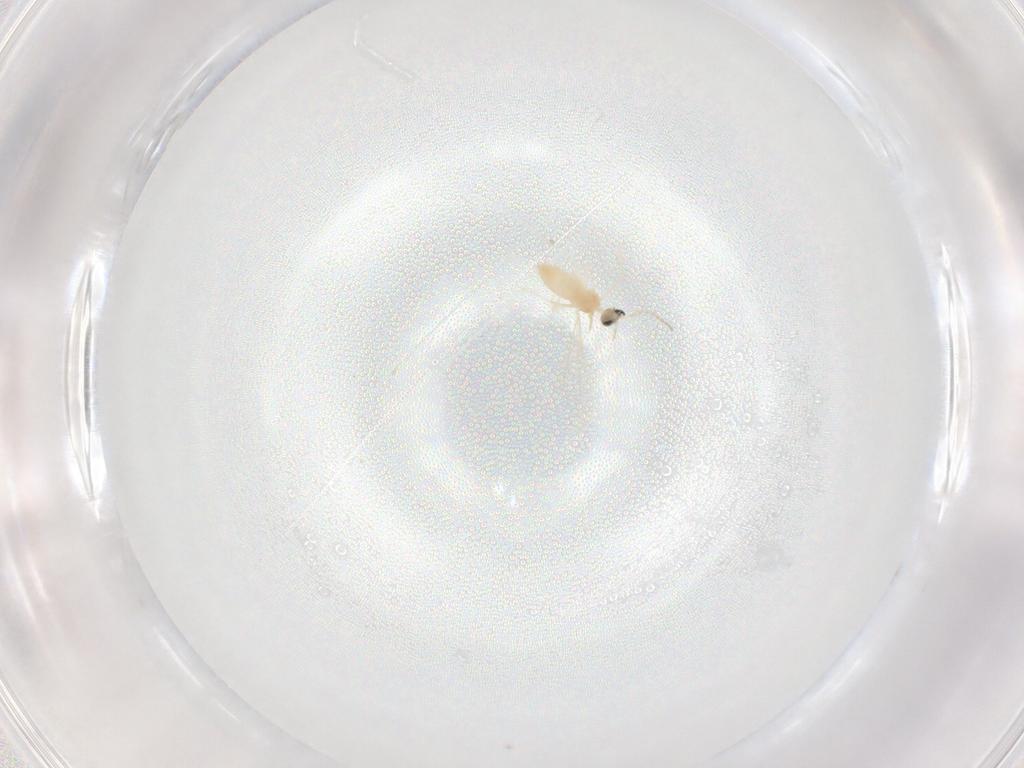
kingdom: Animalia
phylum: Arthropoda
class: Insecta
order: Diptera
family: Cecidomyiidae
